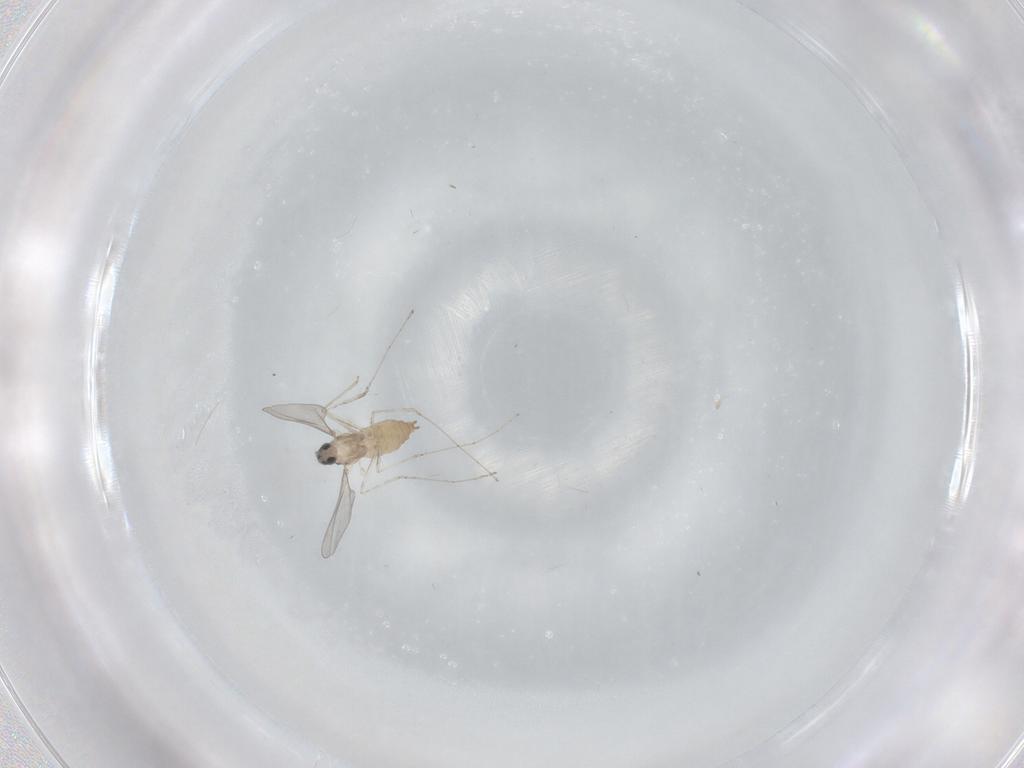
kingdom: Animalia
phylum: Arthropoda
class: Insecta
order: Diptera
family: Cecidomyiidae
